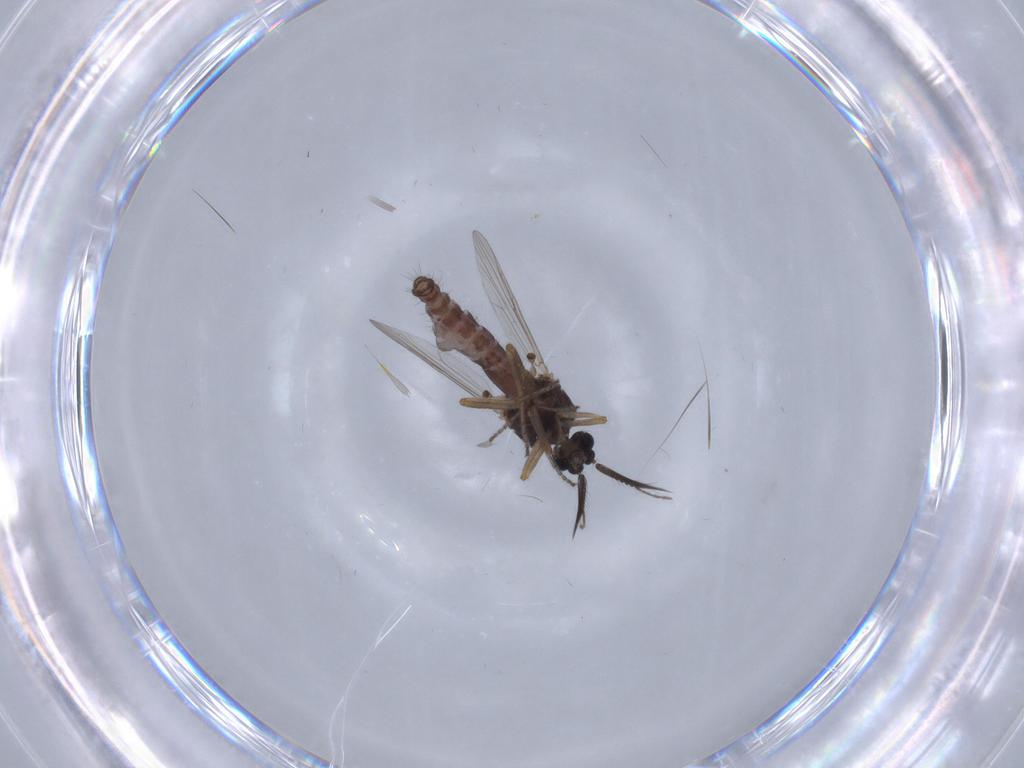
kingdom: Animalia
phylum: Arthropoda
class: Insecta
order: Diptera
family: Ceratopogonidae
